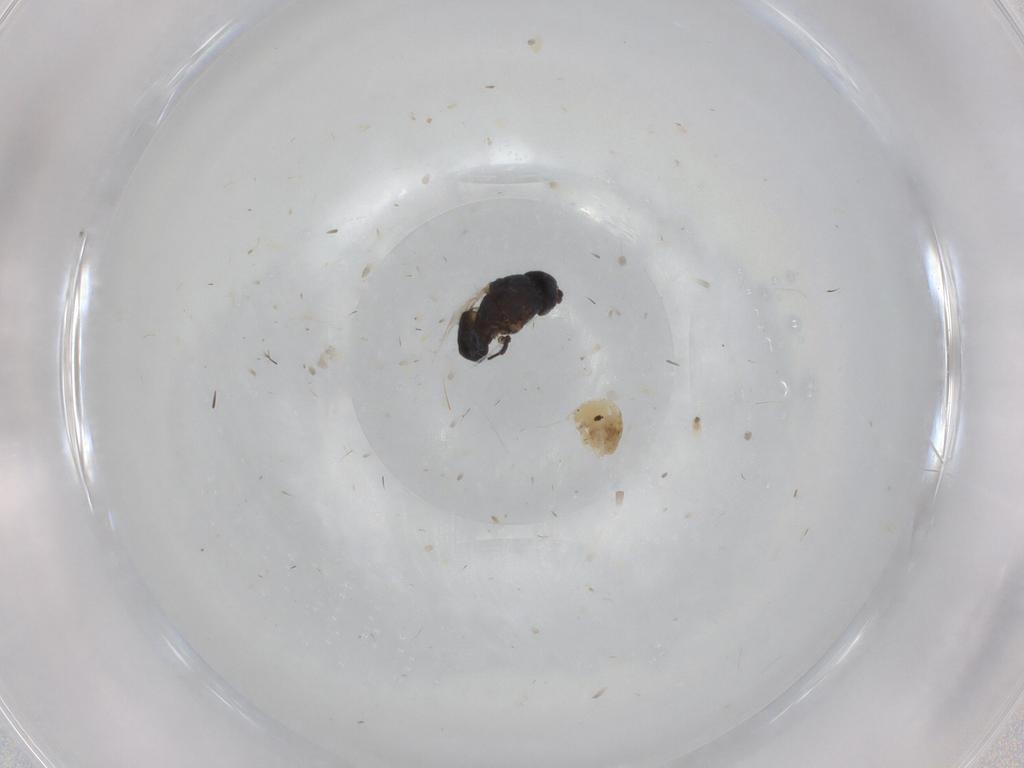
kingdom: Animalia
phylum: Arthropoda
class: Insecta
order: Diptera
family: Sphaeroceridae
